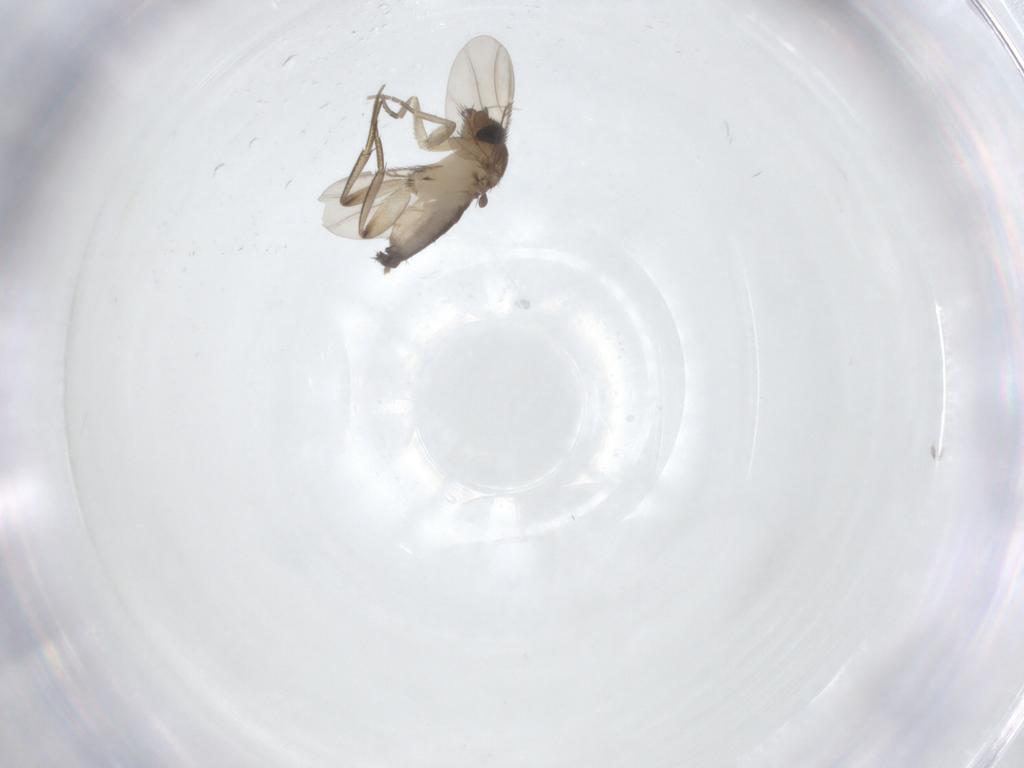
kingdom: Animalia
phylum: Arthropoda
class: Insecta
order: Diptera
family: Phoridae
